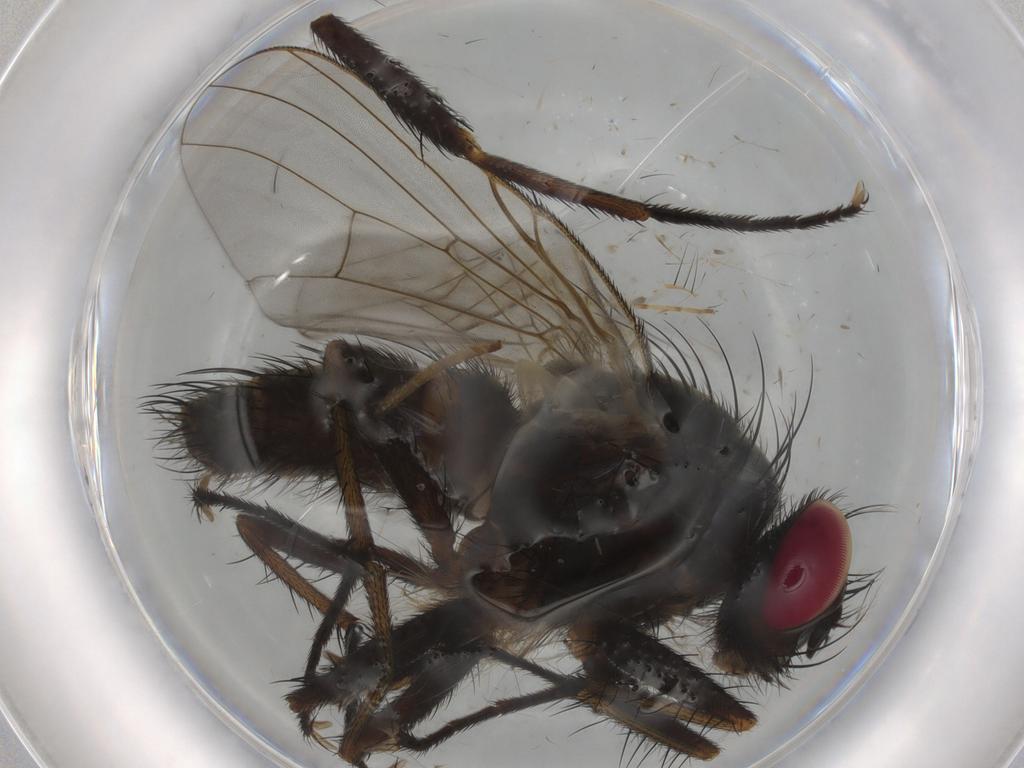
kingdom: Animalia
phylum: Arthropoda
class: Insecta
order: Diptera
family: Muscidae
